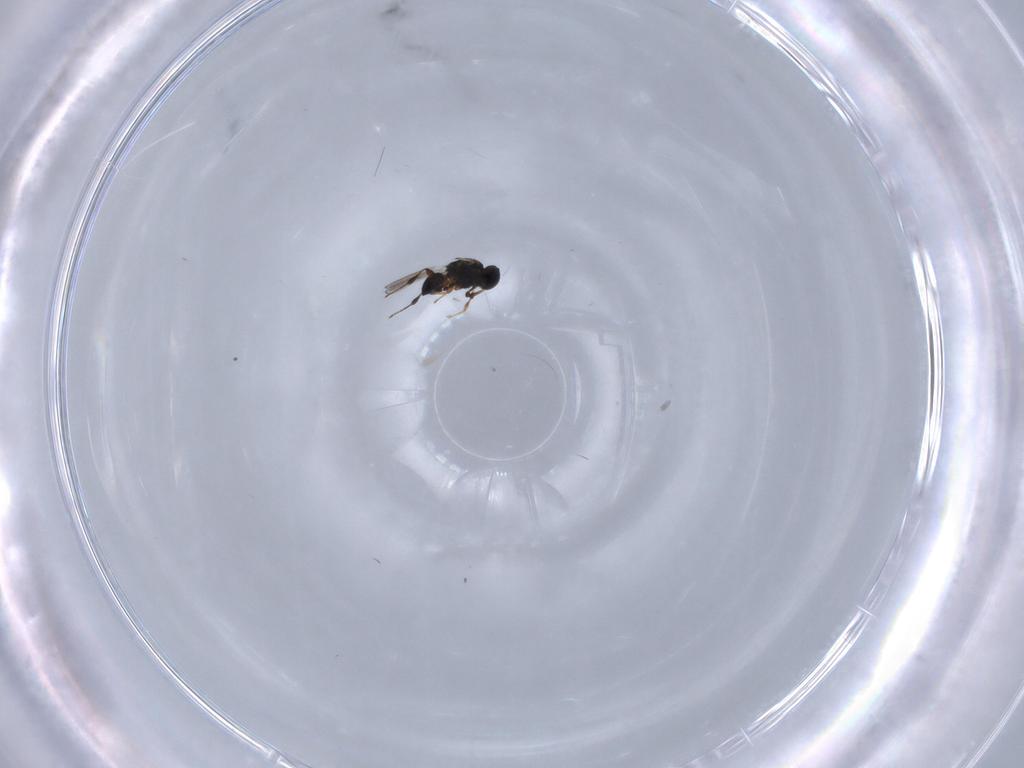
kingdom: Animalia
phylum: Arthropoda
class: Insecta
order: Hymenoptera
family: Platygastridae
